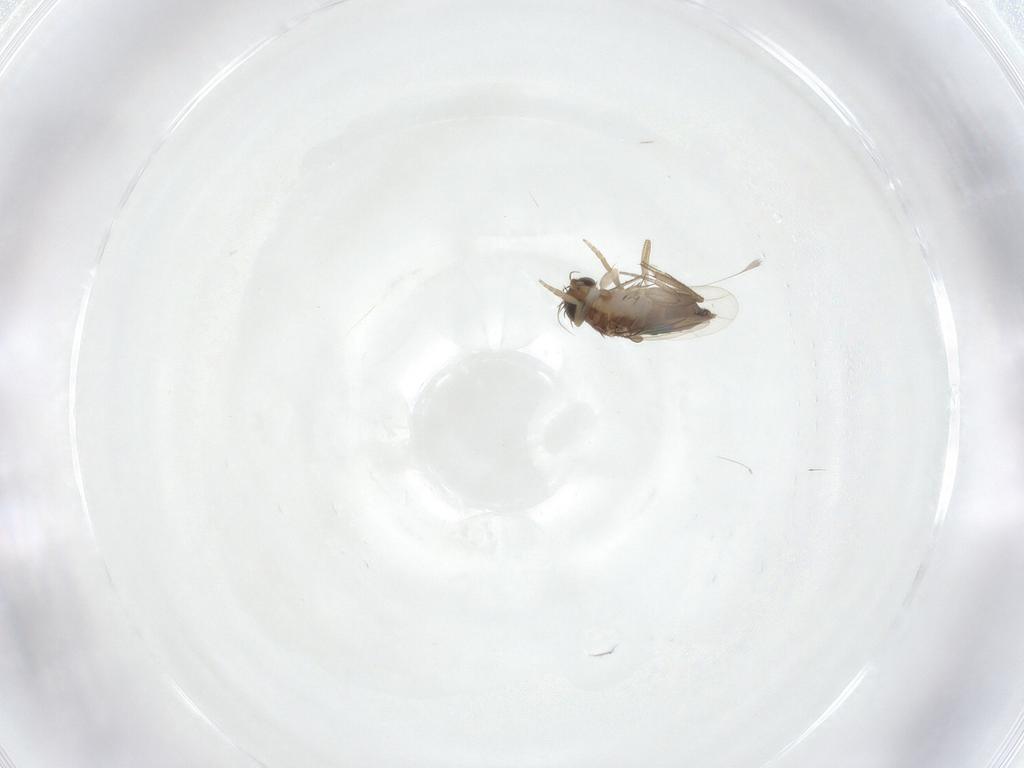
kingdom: Animalia
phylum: Arthropoda
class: Insecta
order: Diptera
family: Phoridae
